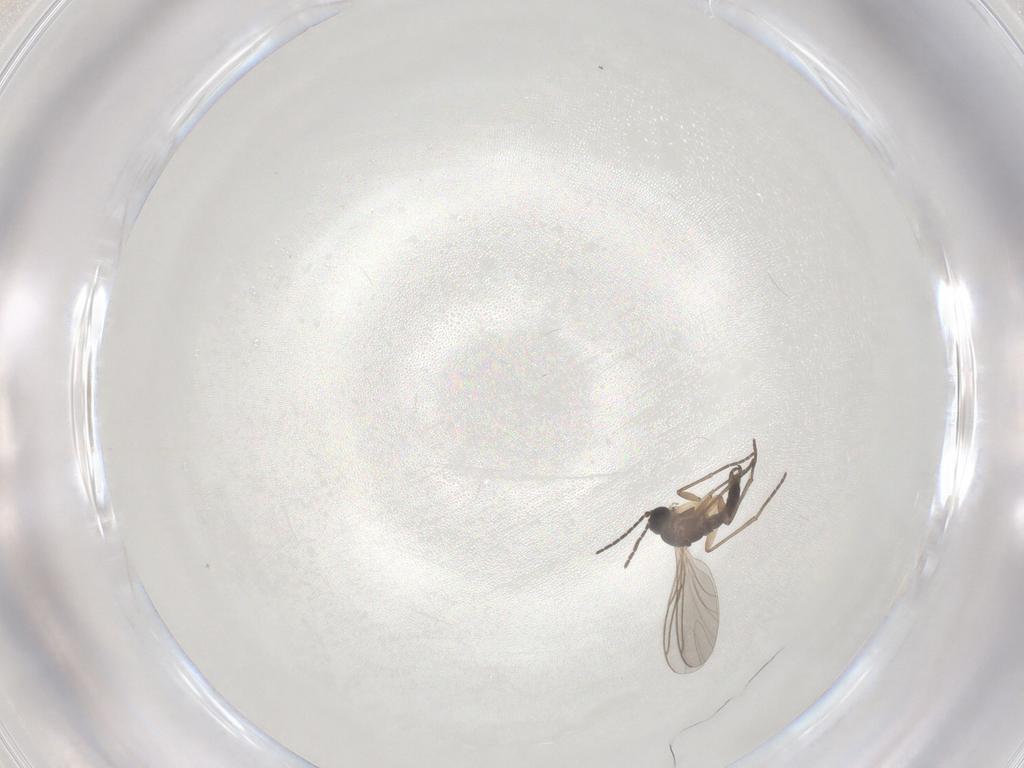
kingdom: Animalia
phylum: Arthropoda
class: Insecta
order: Diptera
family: Sciaridae
